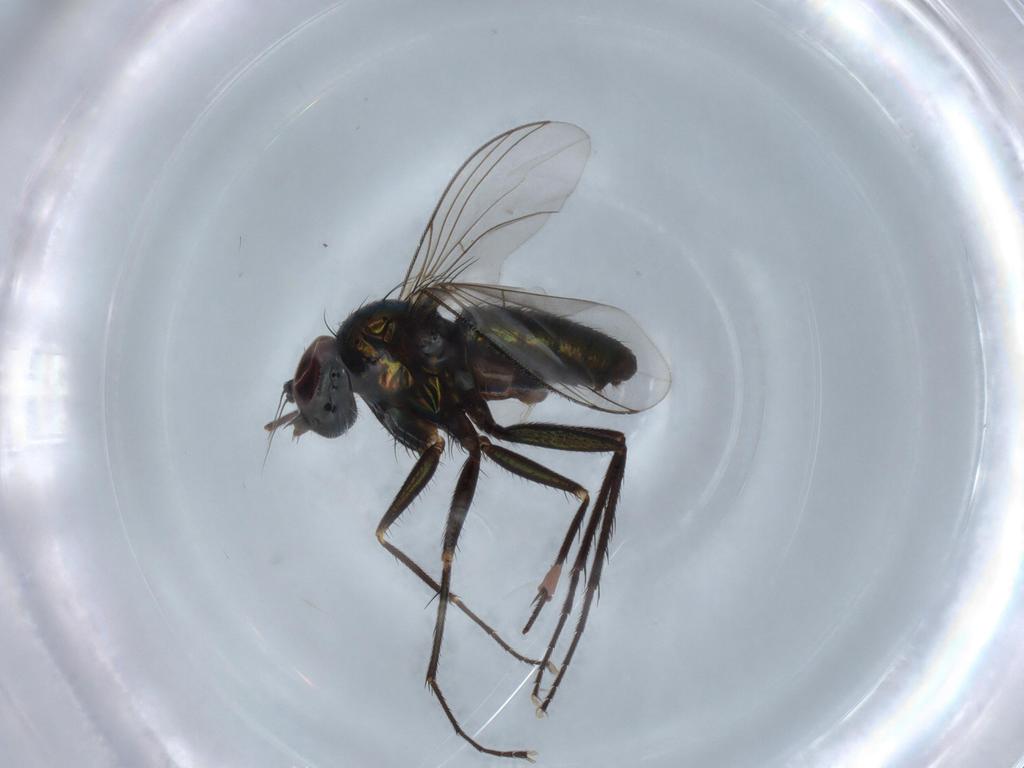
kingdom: Animalia
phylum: Arthropoda
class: Insecta
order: Diptera
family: Dolichopodidae
